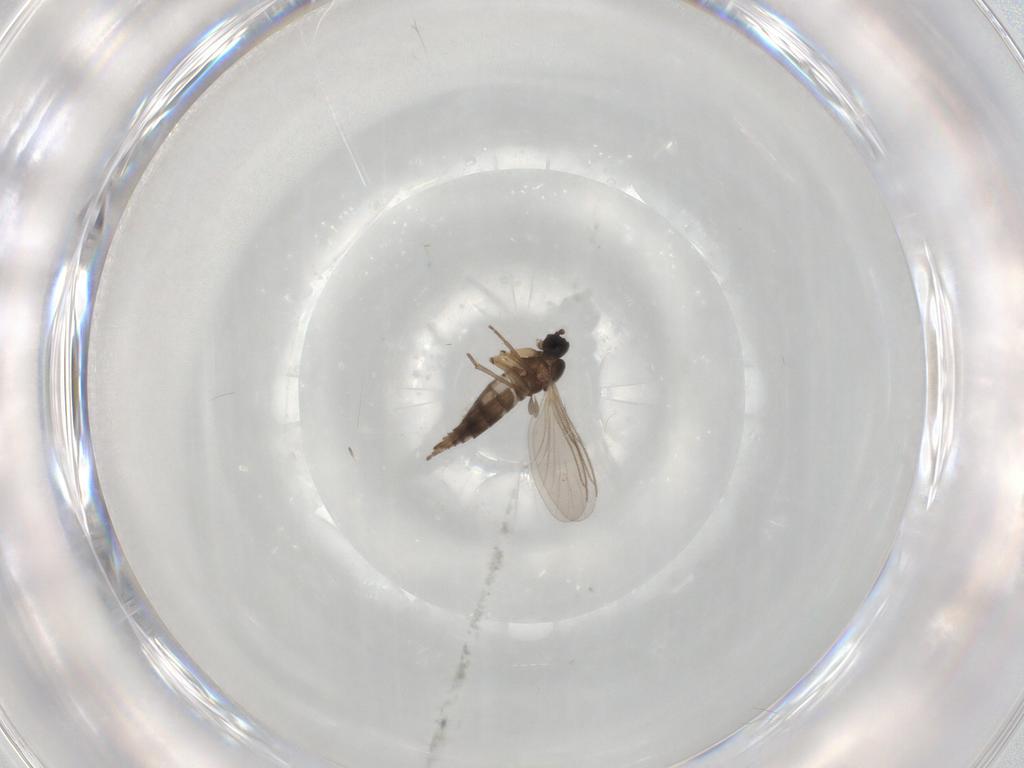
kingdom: Animalia
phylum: Arthropoda
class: Insecta
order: Diptera
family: Sciaridae
